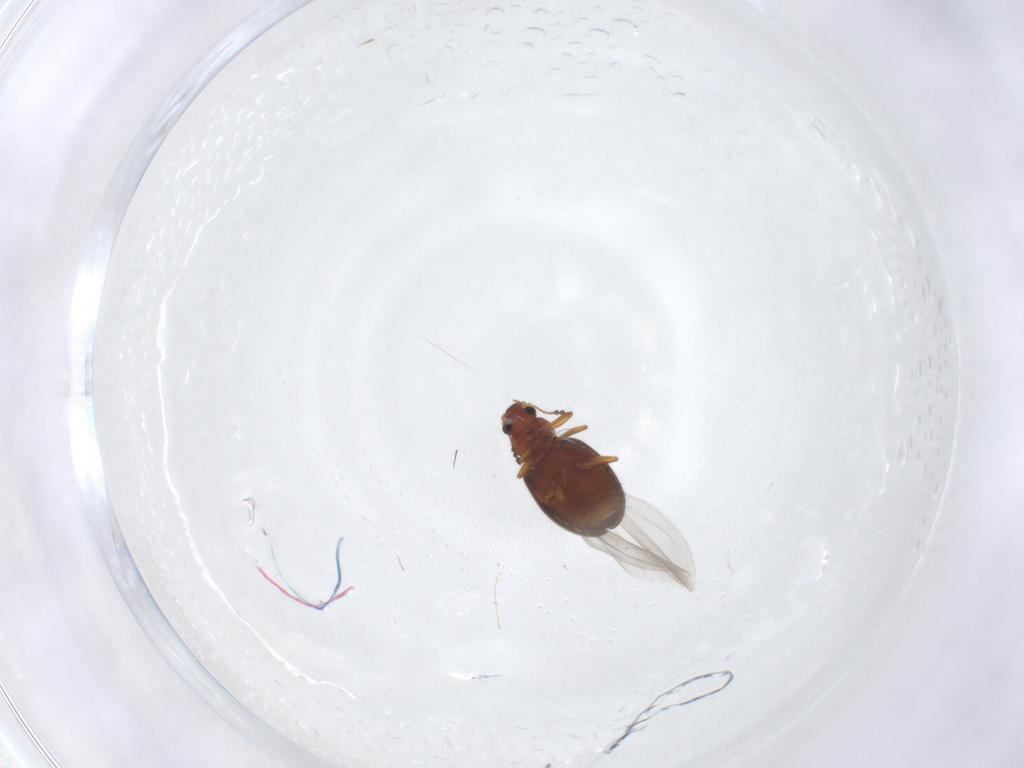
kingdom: Animalia
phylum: Arthropoda
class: Insecta
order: Coleoptera
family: Latridiidae
